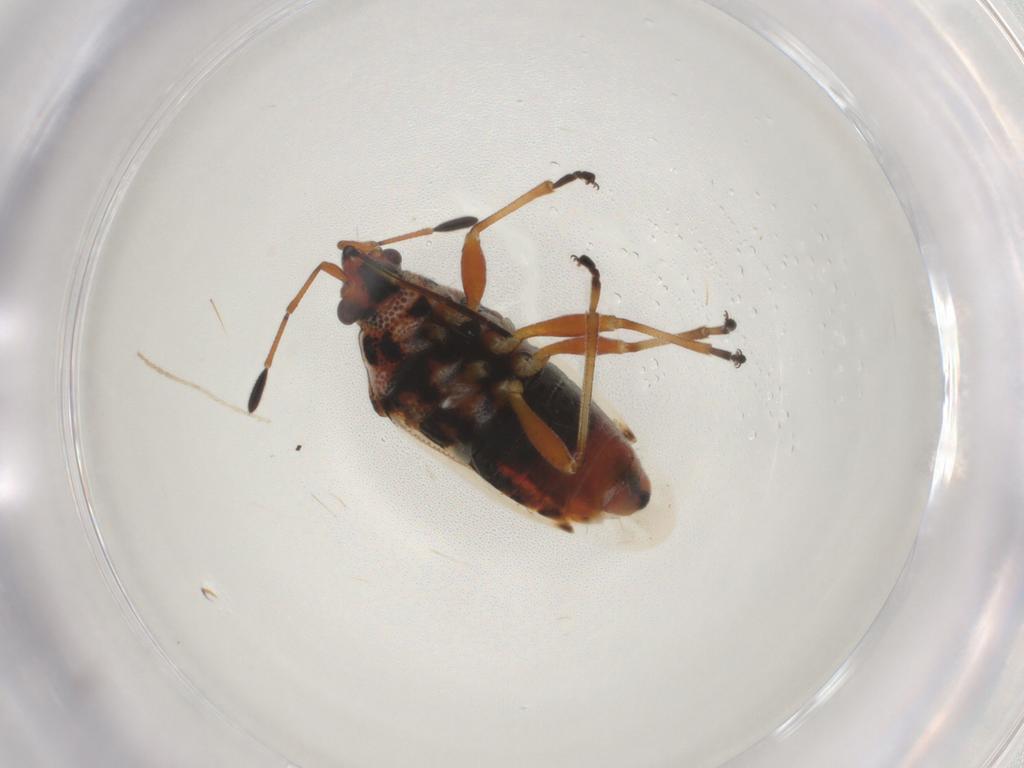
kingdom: Animalia
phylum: Arthropoda
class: Insecta
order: Hemiptera
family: Lygaeidae
